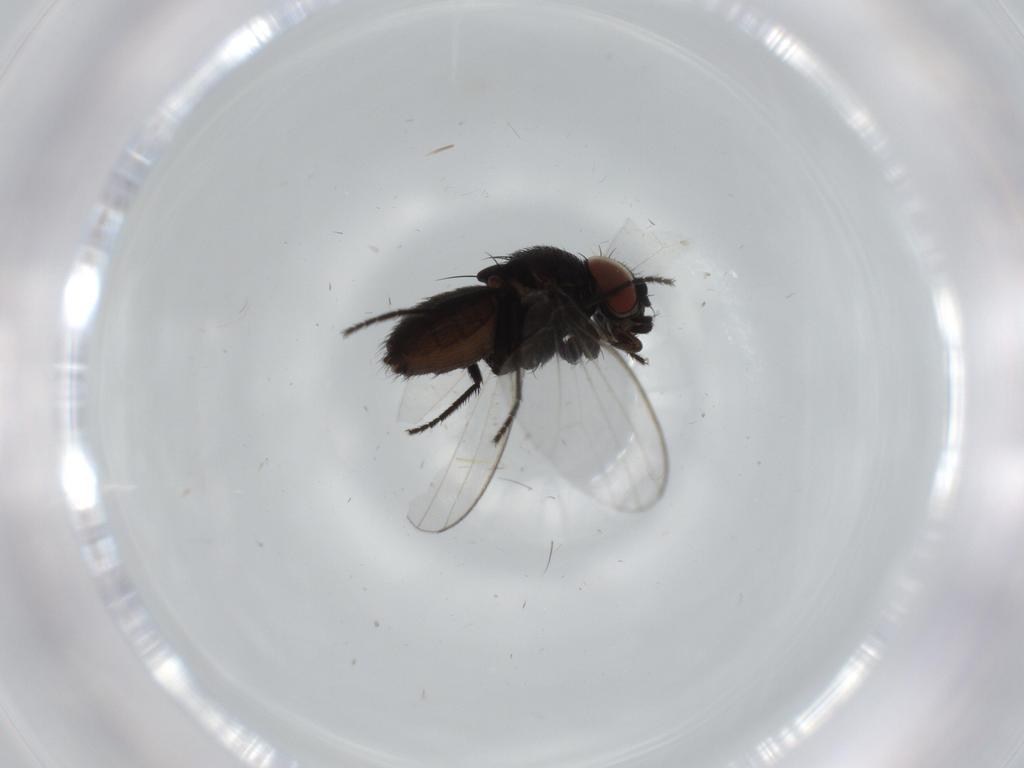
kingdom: Animalia
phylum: Arthropoda
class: Insecta
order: Diptera
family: Milichiidae
